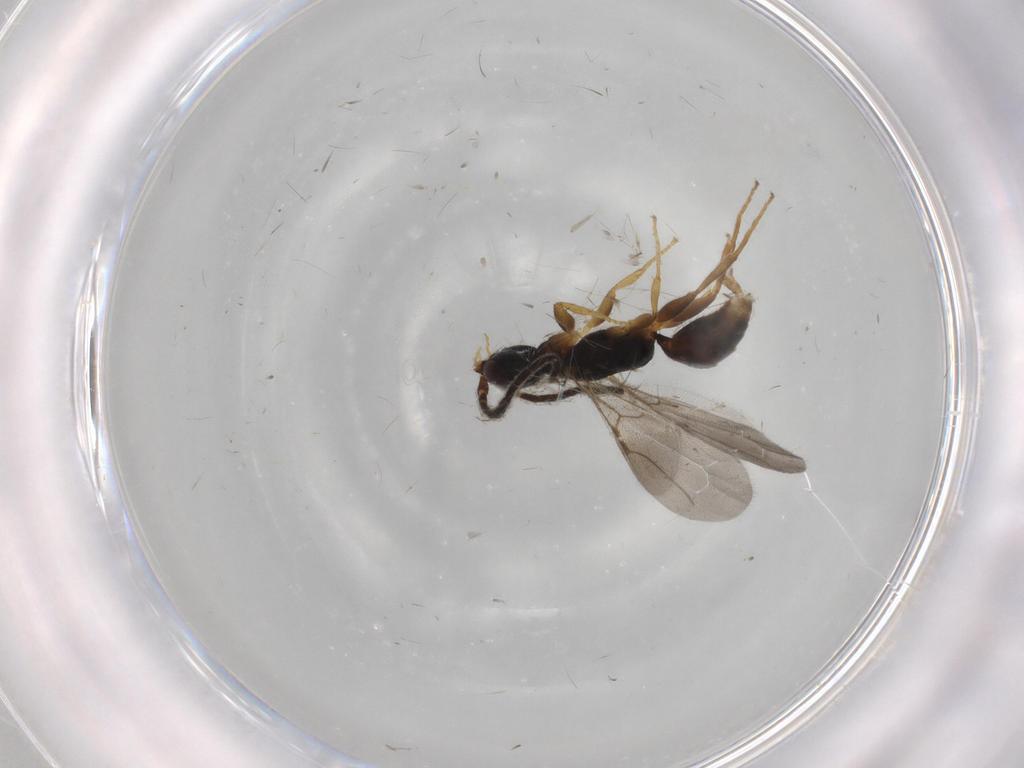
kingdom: Animalia
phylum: Arthropoda
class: Insecta
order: Hymenoptera
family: Bethylidae
